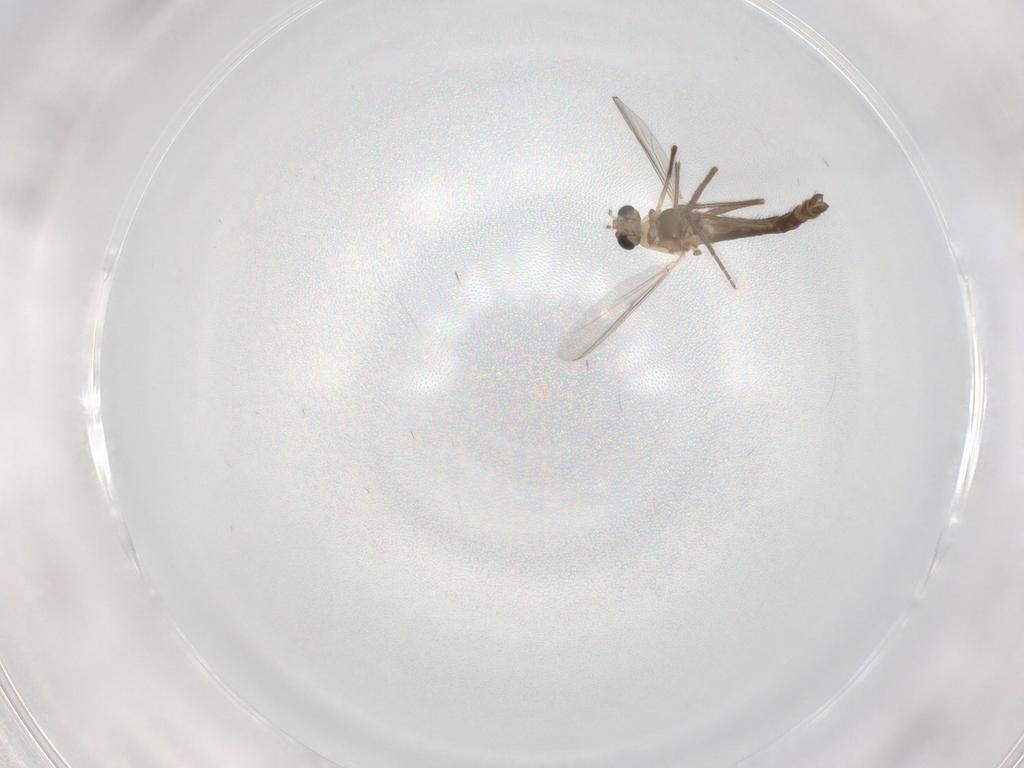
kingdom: Animalia
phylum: Arthropoda
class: Insecta
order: Diptera
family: Chironomidae
